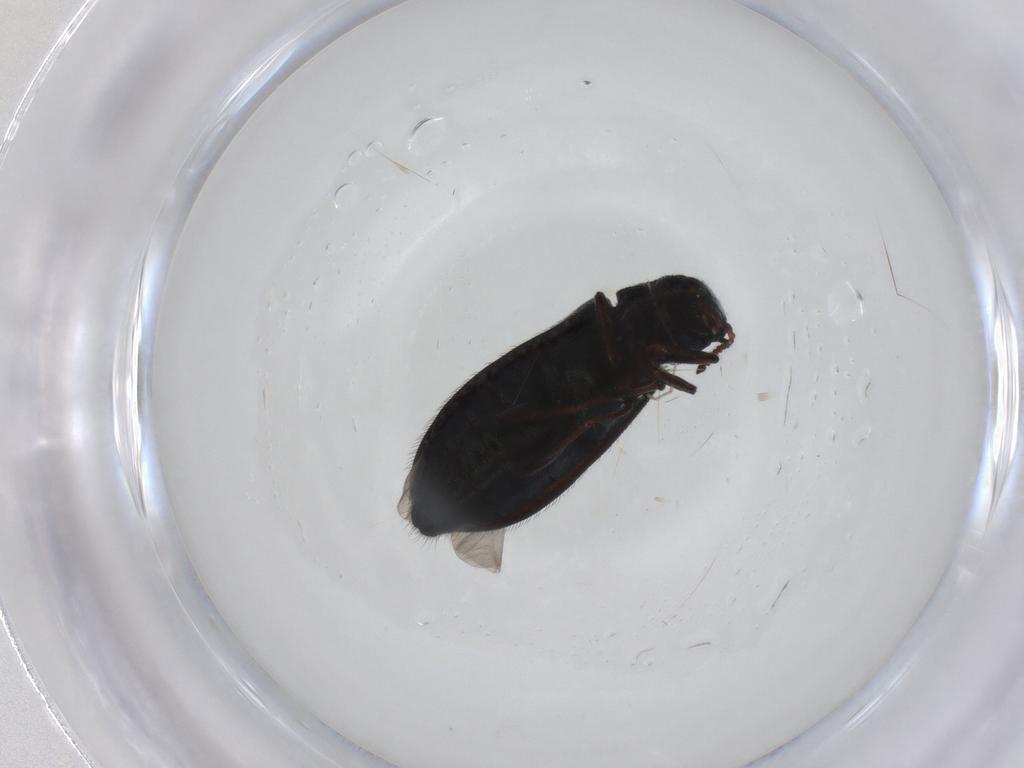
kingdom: Animalia
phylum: Arthropoda
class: Insecta
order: Coleoptera
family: Melyridae
